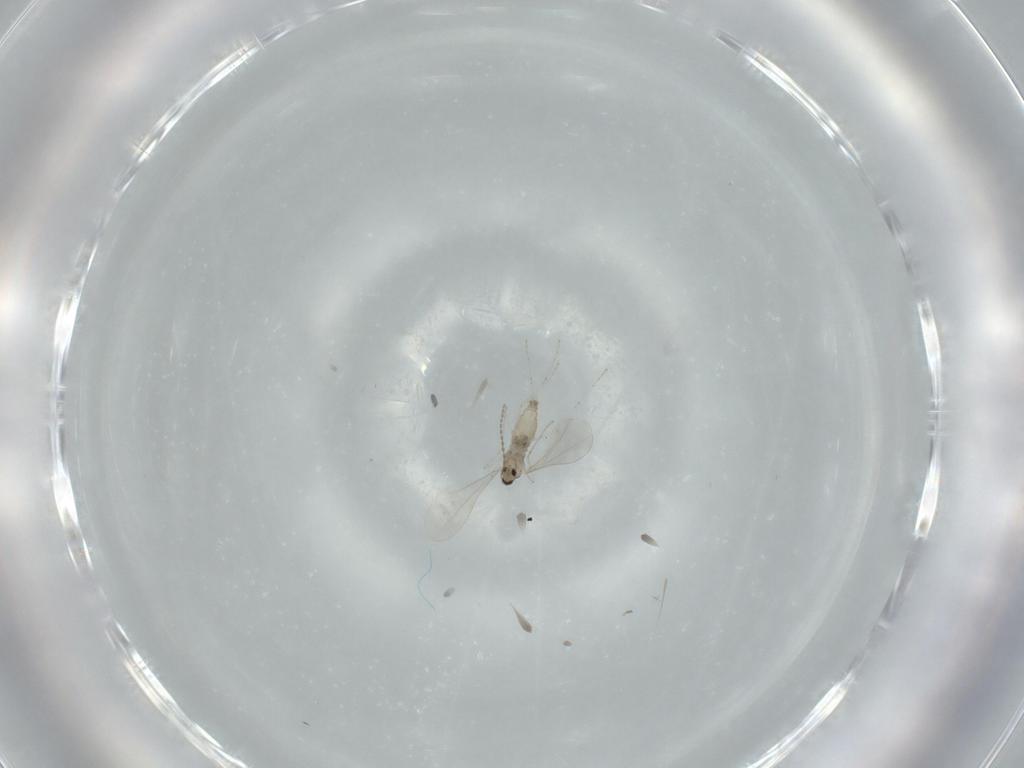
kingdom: Animalia
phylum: Arthropoda
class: Insecta
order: Diptera
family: Cecidomyiidae
